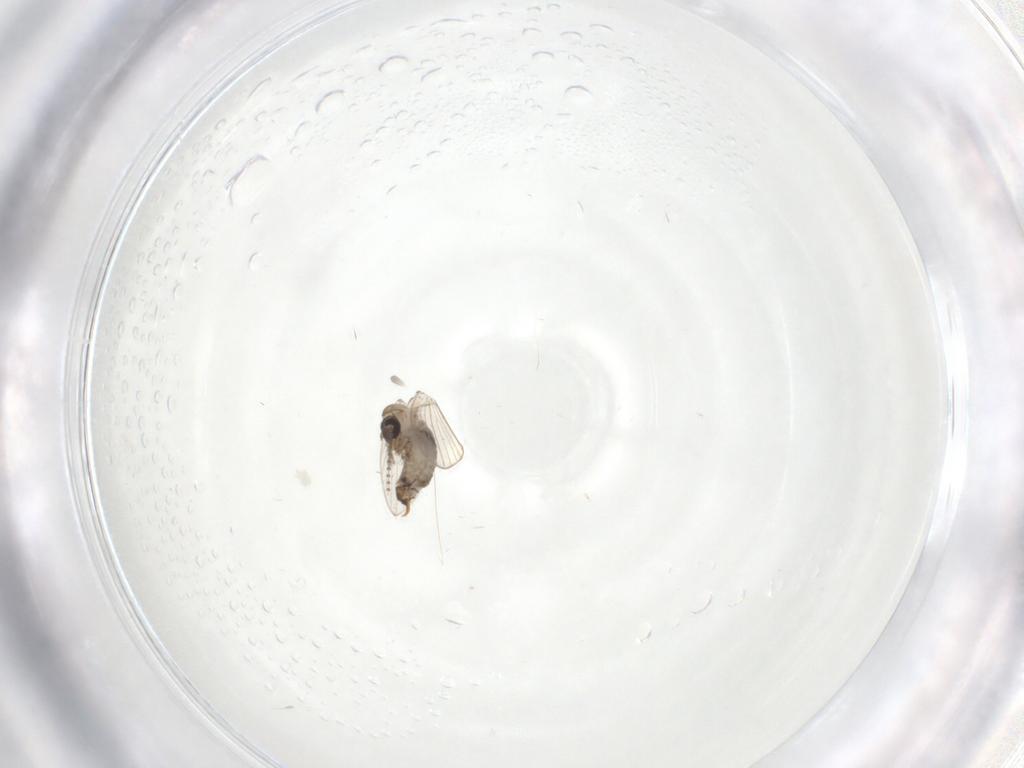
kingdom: Animalia
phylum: Arthropoda
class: Insecta
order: Diptera
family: Psychodidae
